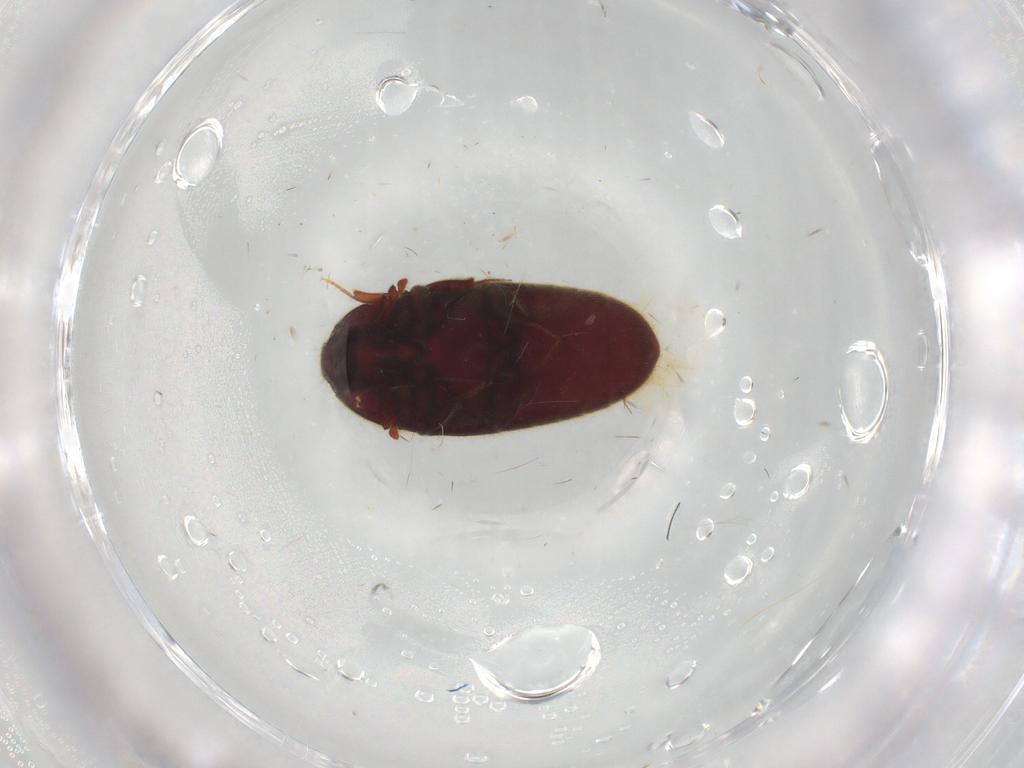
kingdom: Animalia
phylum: Arthropoda
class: Insecta
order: Coleoptera
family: Throscidae
